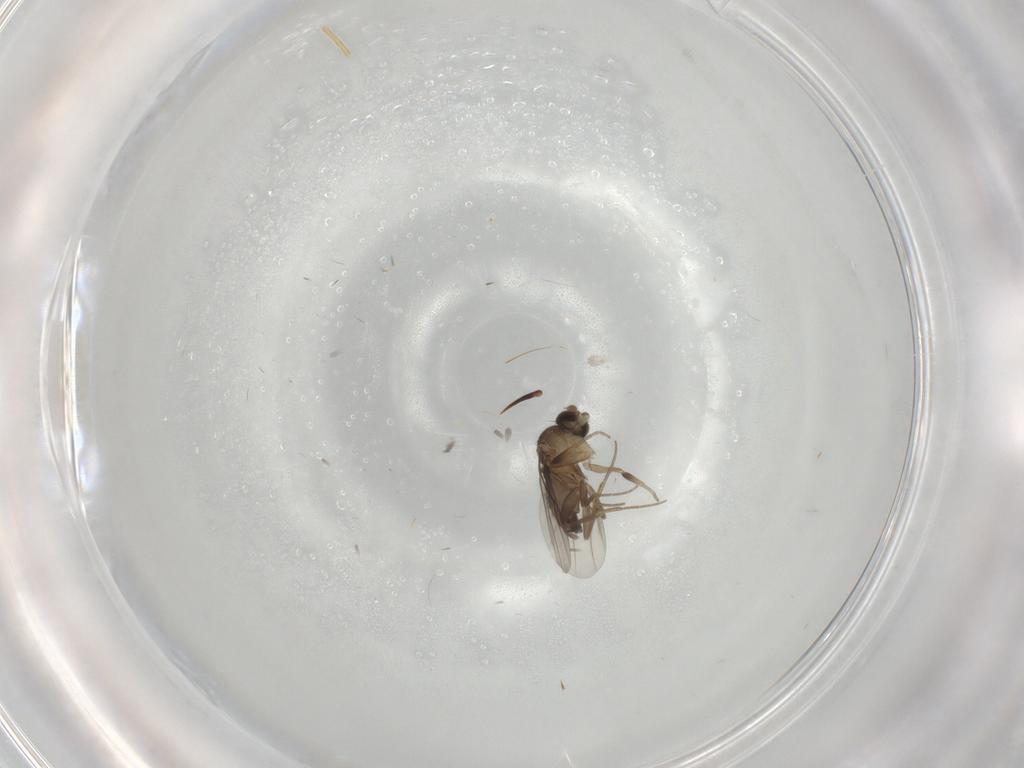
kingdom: Animalia
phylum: Arthropoda
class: Insecta
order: Diptera
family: Phoridae
